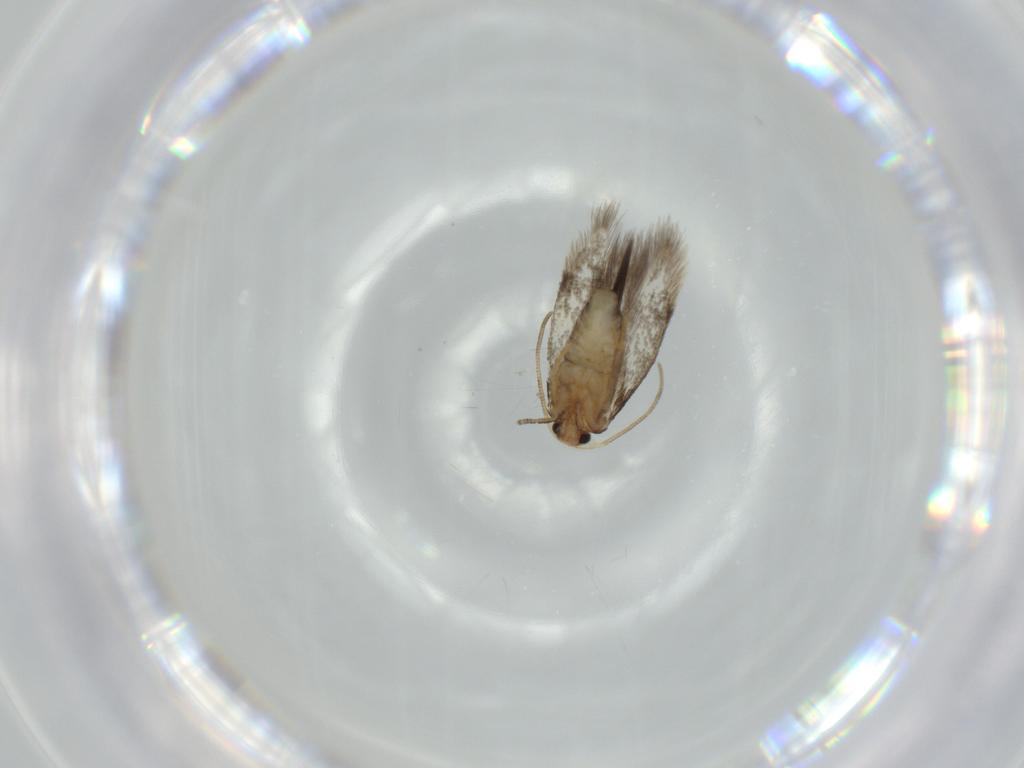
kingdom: Animalia
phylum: Arthropoda
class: Insecta
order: Lepidoptera
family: Nepticulidae
